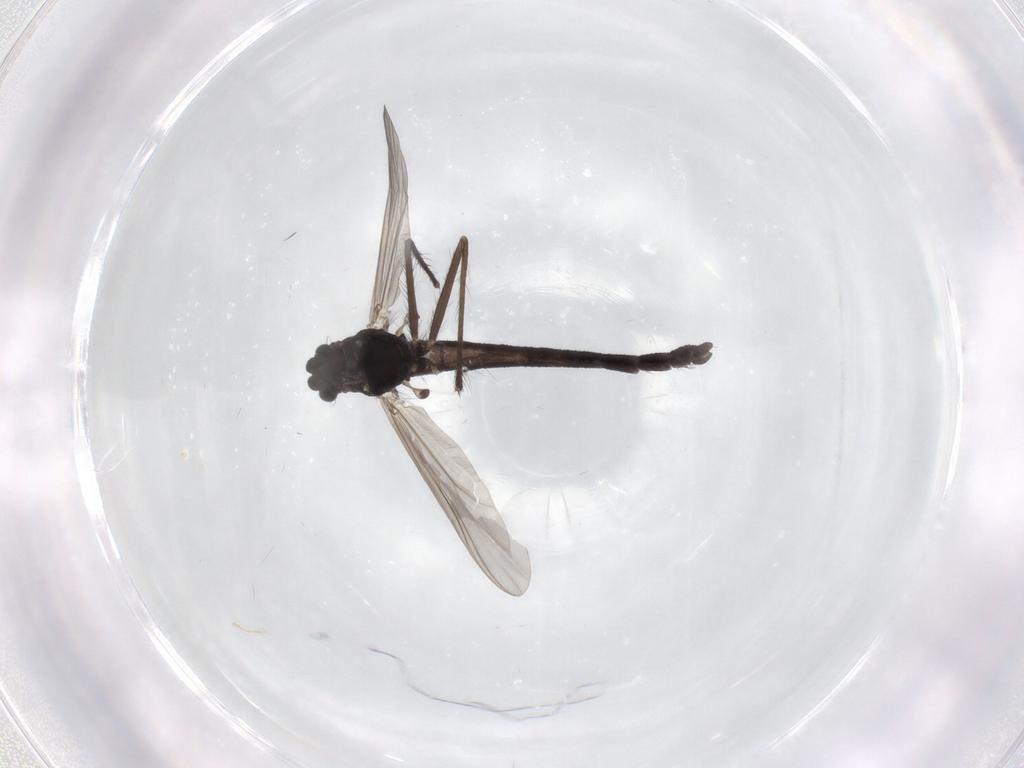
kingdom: Animalia
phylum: Arthropoda
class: Insecta
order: Diptera
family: Chironomidae
